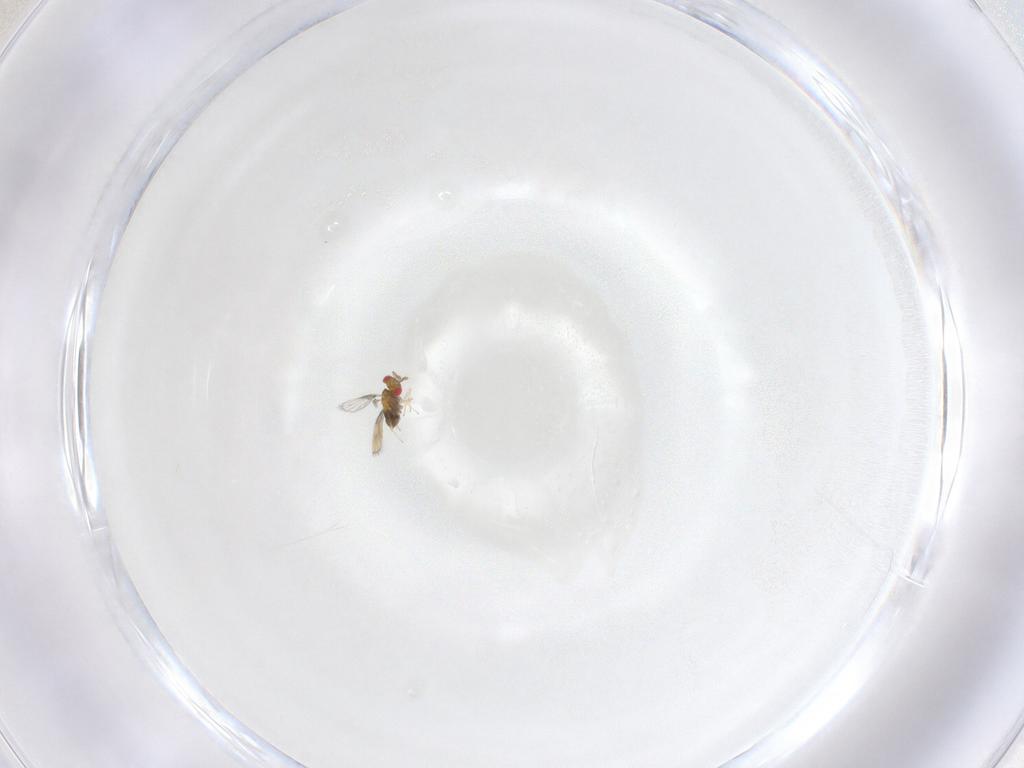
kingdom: Animalia
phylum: Arthropoda
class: Insecta
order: Hymenoptera
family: Trichogrammatidae
